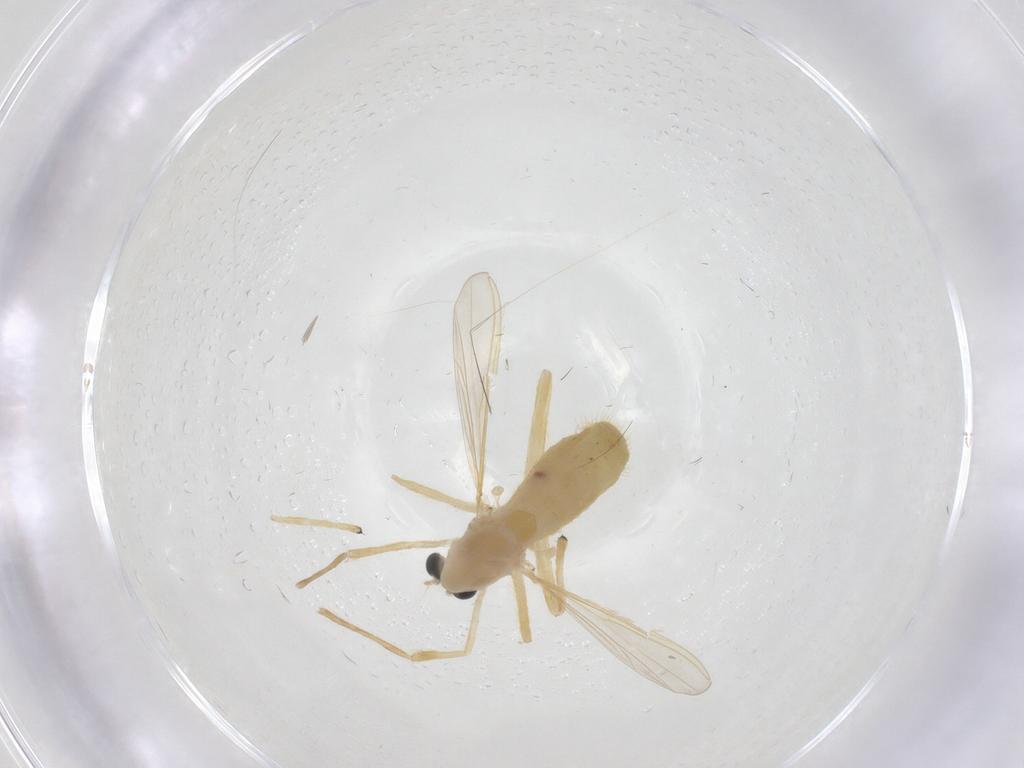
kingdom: Animalia
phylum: Arthropoda
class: Insecta
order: Diptera
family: Chironomidae
